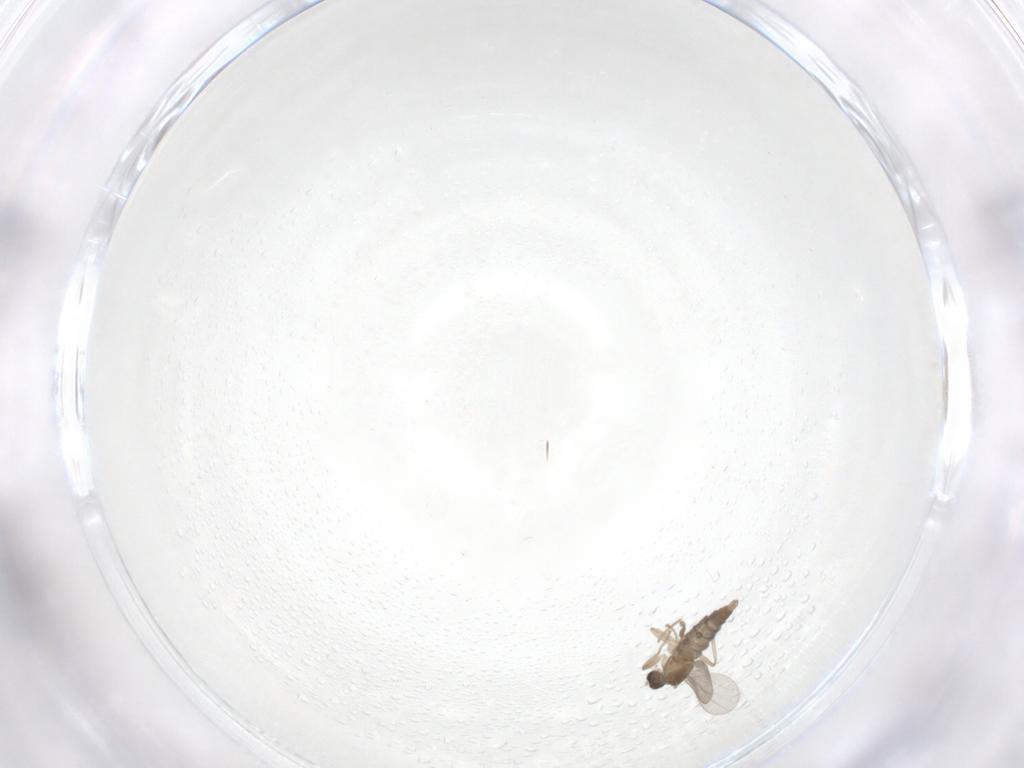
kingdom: Animalia
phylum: Arthropoda
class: Insecta
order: Diptera
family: Cecidomyiidae
